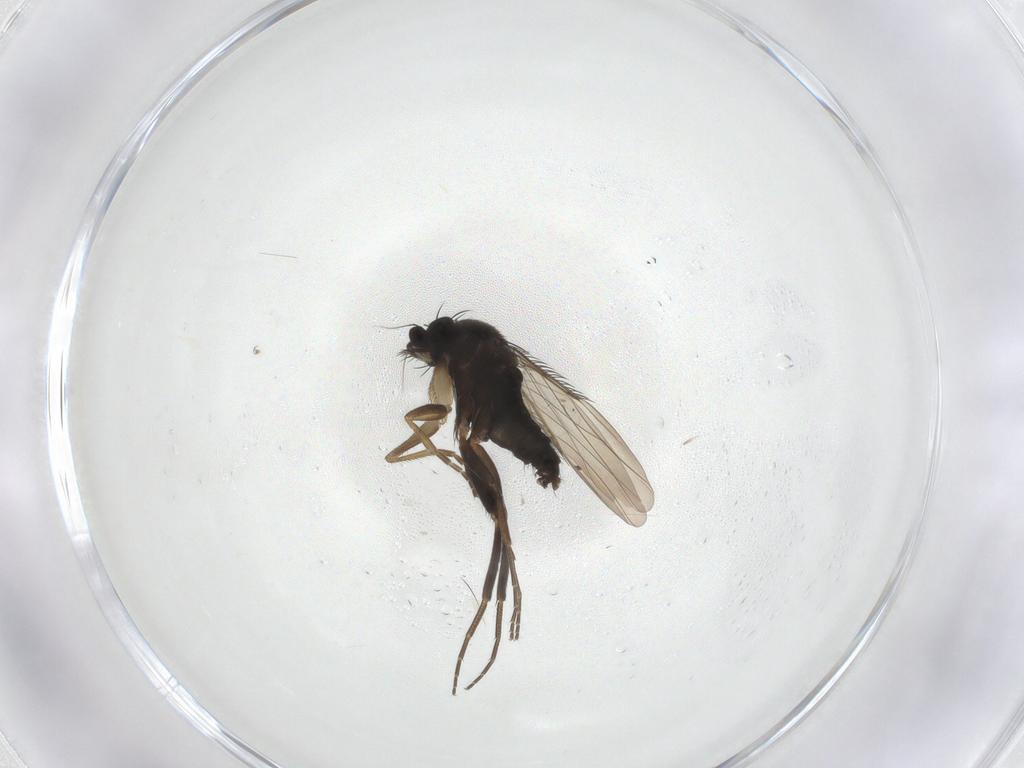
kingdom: Animalia
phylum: Arthropoda
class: Insecta
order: Diptera
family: Phoridae
